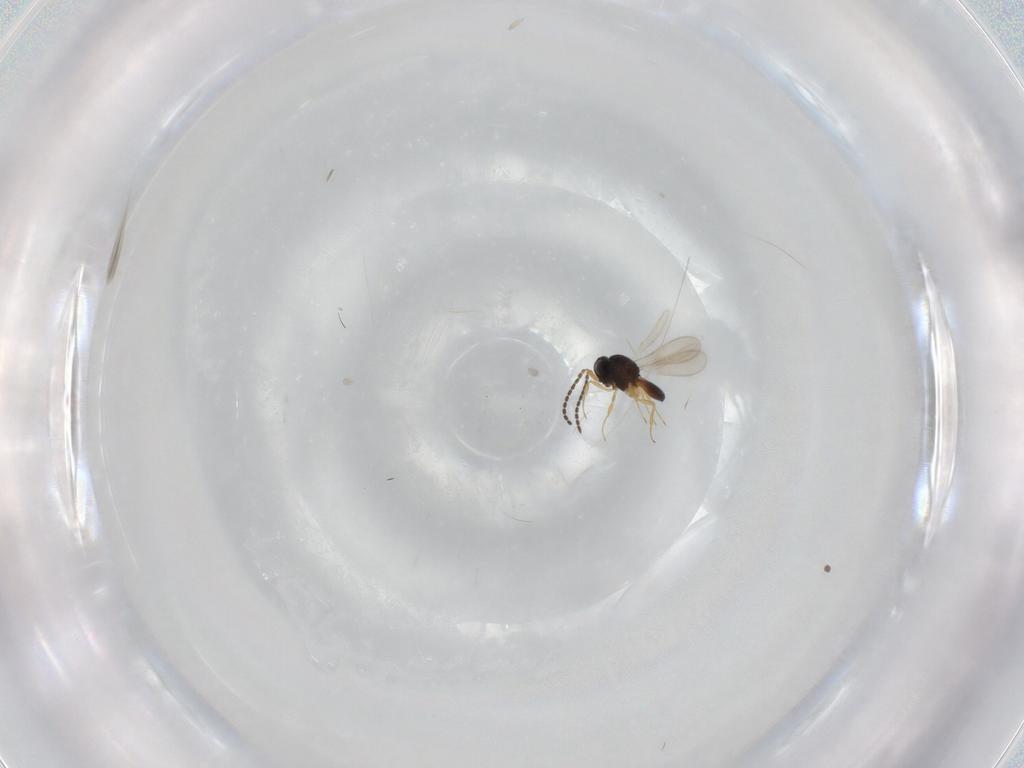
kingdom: Animalia
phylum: Arthropoda
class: Insecta
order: Hymenoptera
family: Scelionidae
